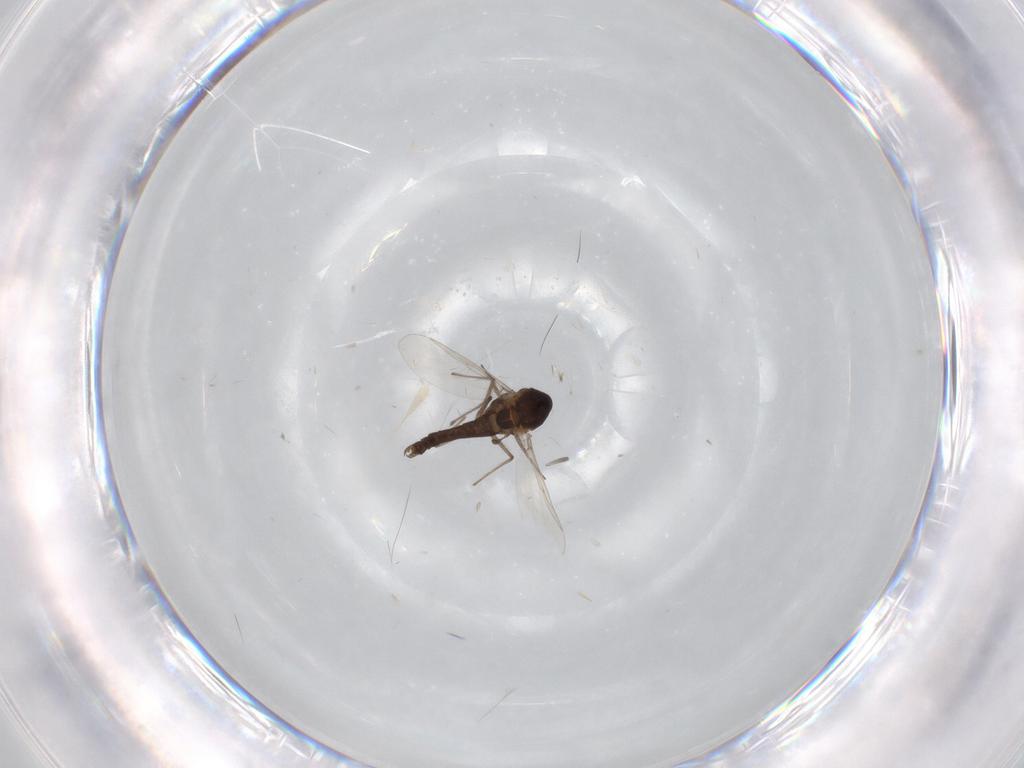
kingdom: Animalia
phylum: Arthropoda
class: Insecta
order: Diptera
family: Chironomidae
